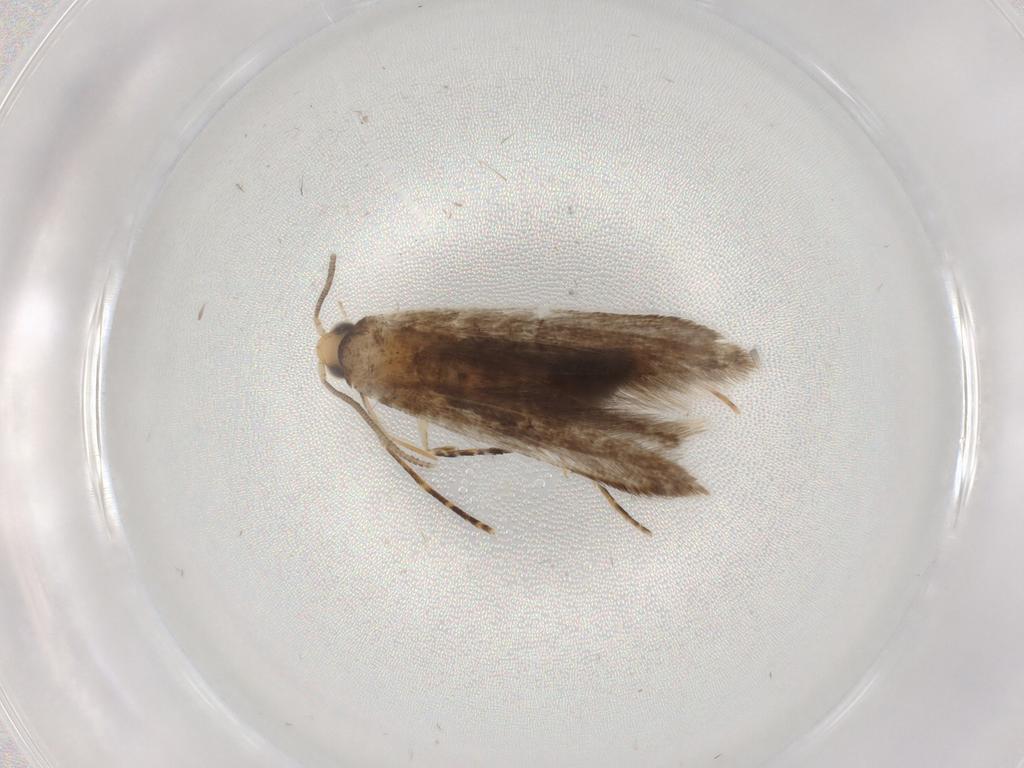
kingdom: Animalia
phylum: Arthropoda
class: Insecta
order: Lepidoptera
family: Tineidae
